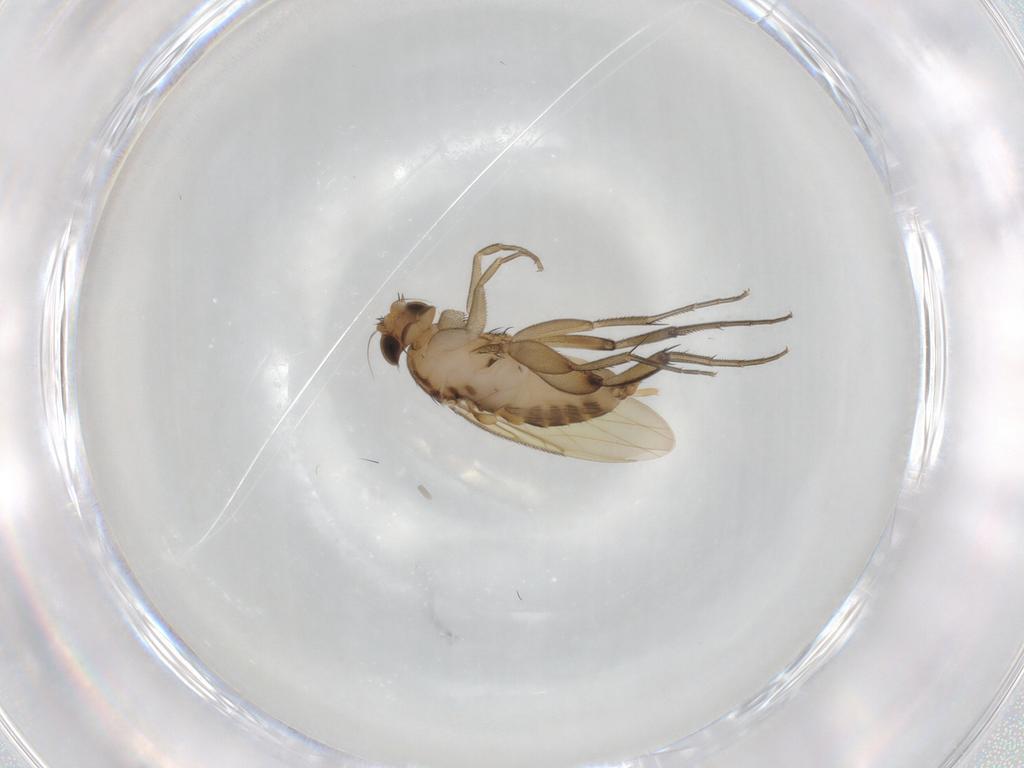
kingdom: Animalia
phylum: Arthropoda
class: Insecta
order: Diptera
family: Phoridae
